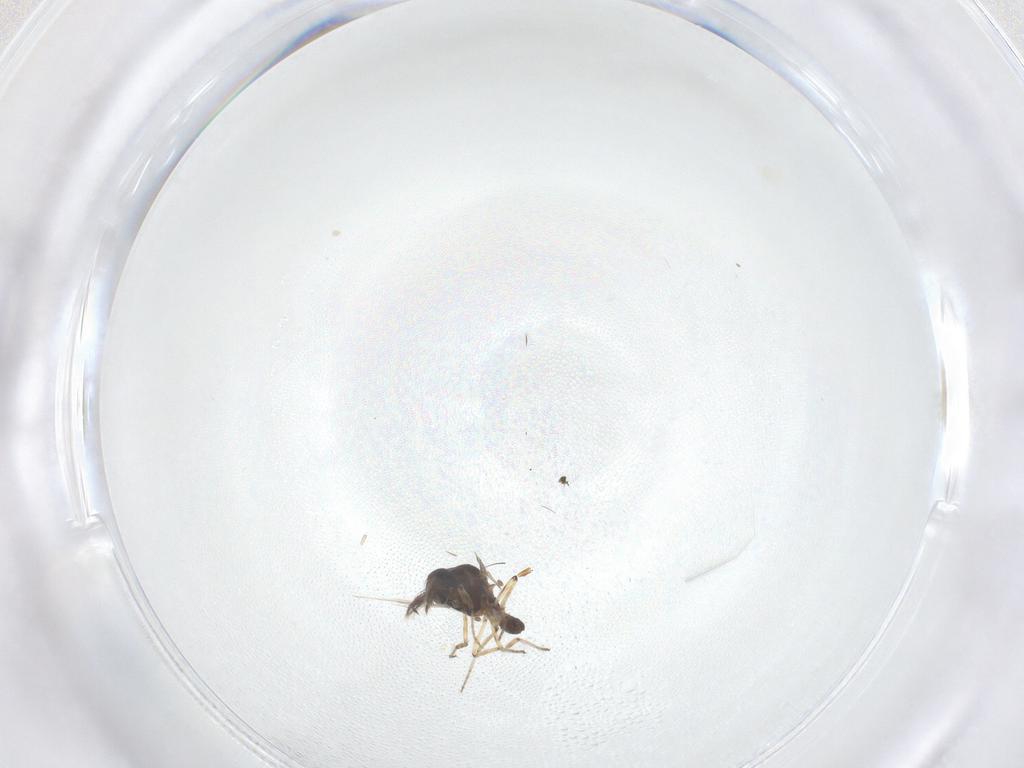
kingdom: Animalia
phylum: Arthropoda
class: Insecta
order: Diptera
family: Ceratopogonidae
